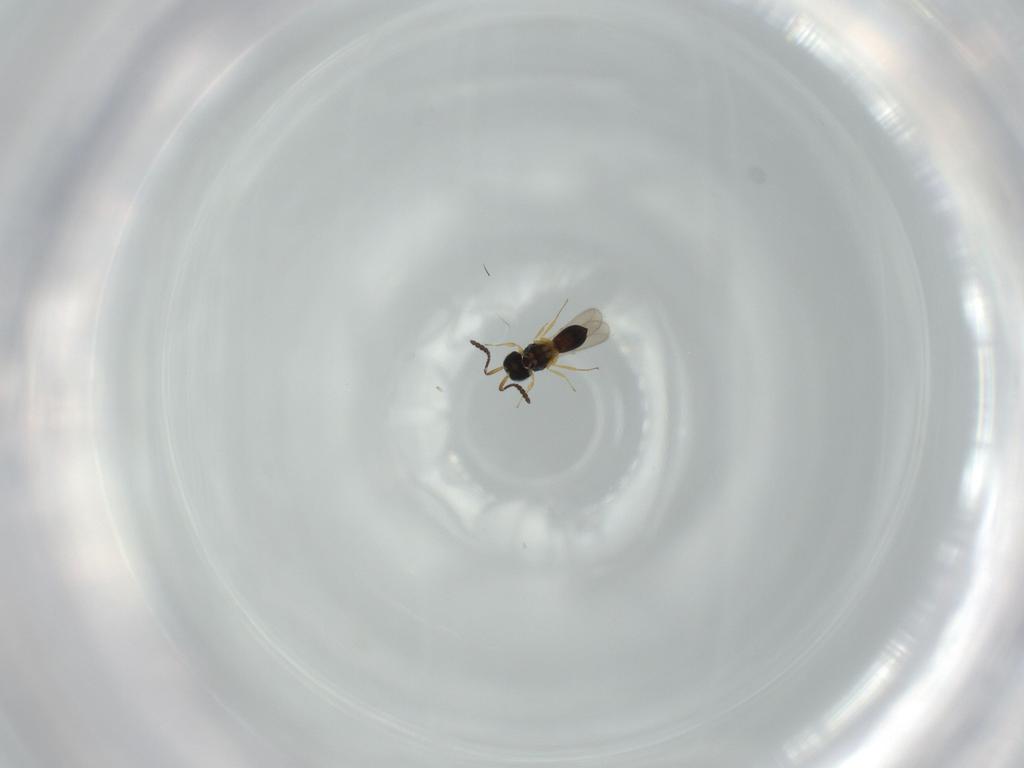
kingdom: Animalia
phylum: Arthropoda
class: Insecta
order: Hymenoptera
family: Scelionidae
